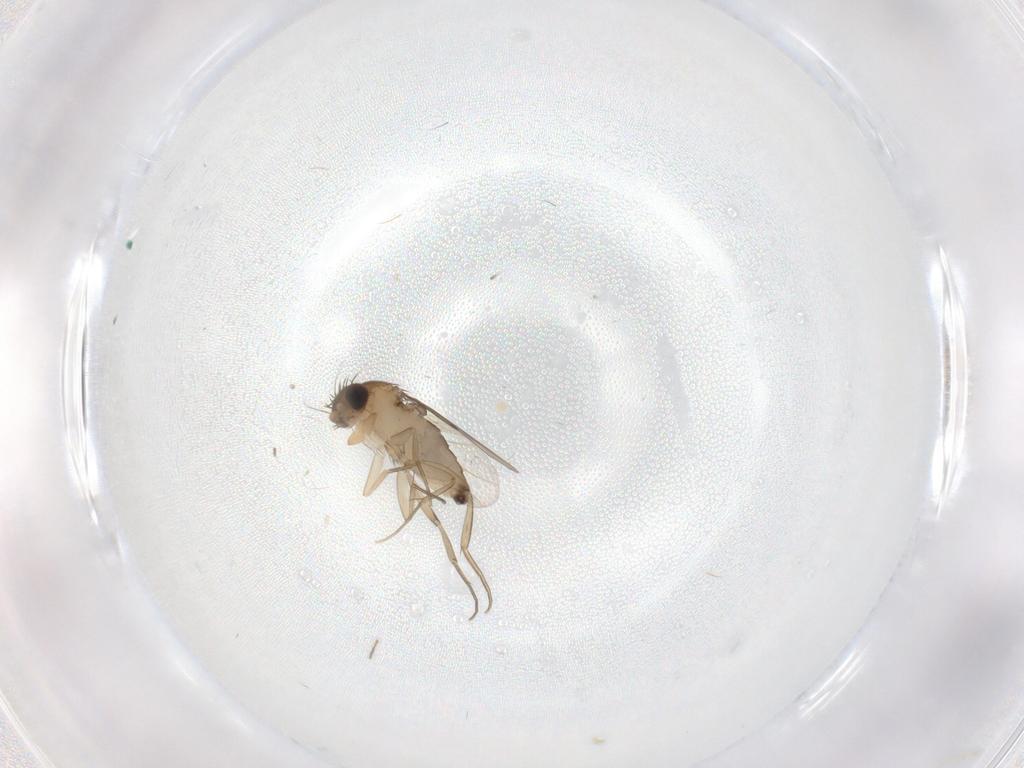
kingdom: Animalia
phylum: Arthropoda
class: Insecta
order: Diptera
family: Phoridae
